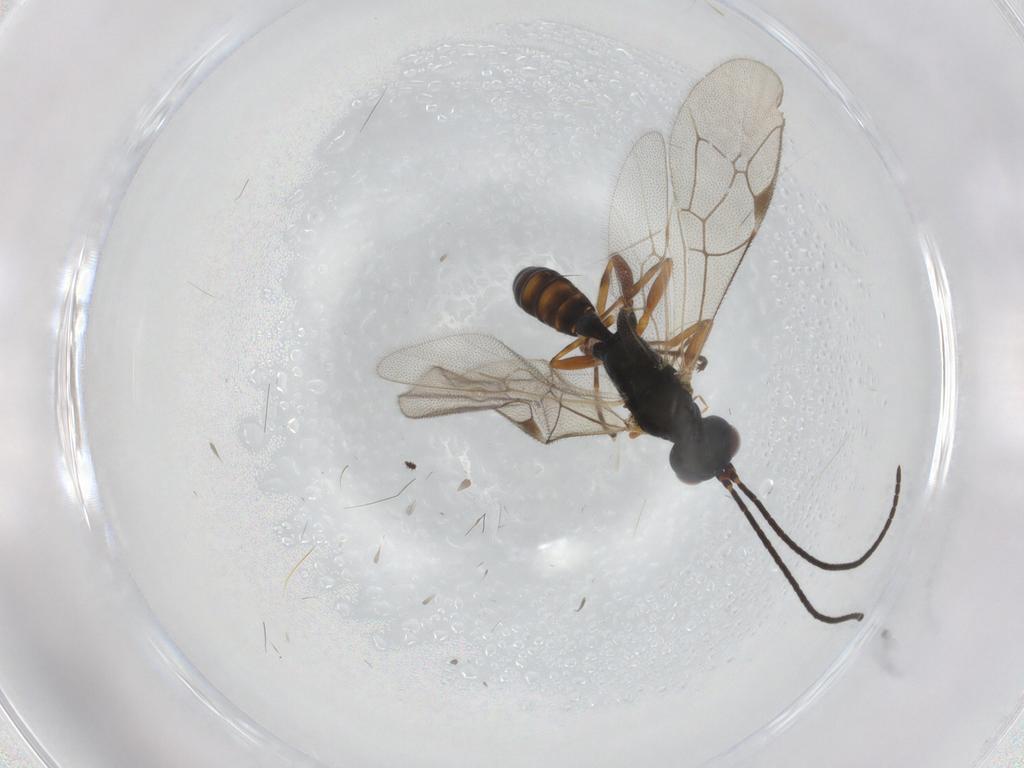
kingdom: Animalia
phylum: Arthropoda
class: Insecta
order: Hymenoptera
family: Ichneumonidae
